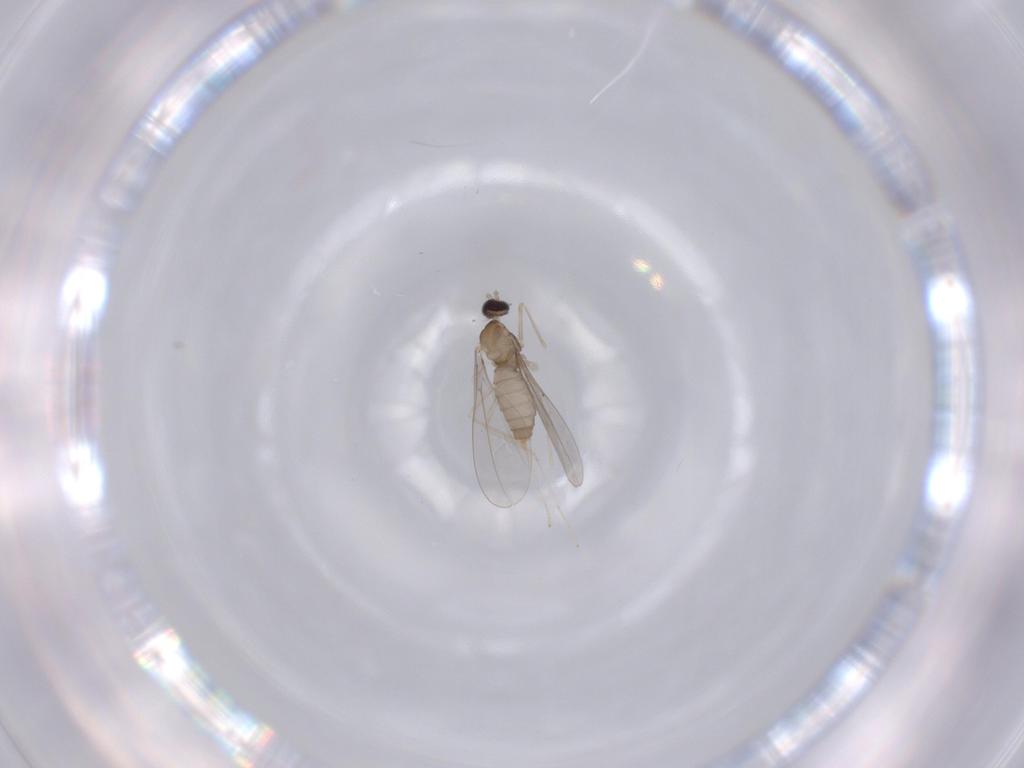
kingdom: Animalia
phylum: Arthropoda
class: Insecta
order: Diptera
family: Cecidomyiidae
